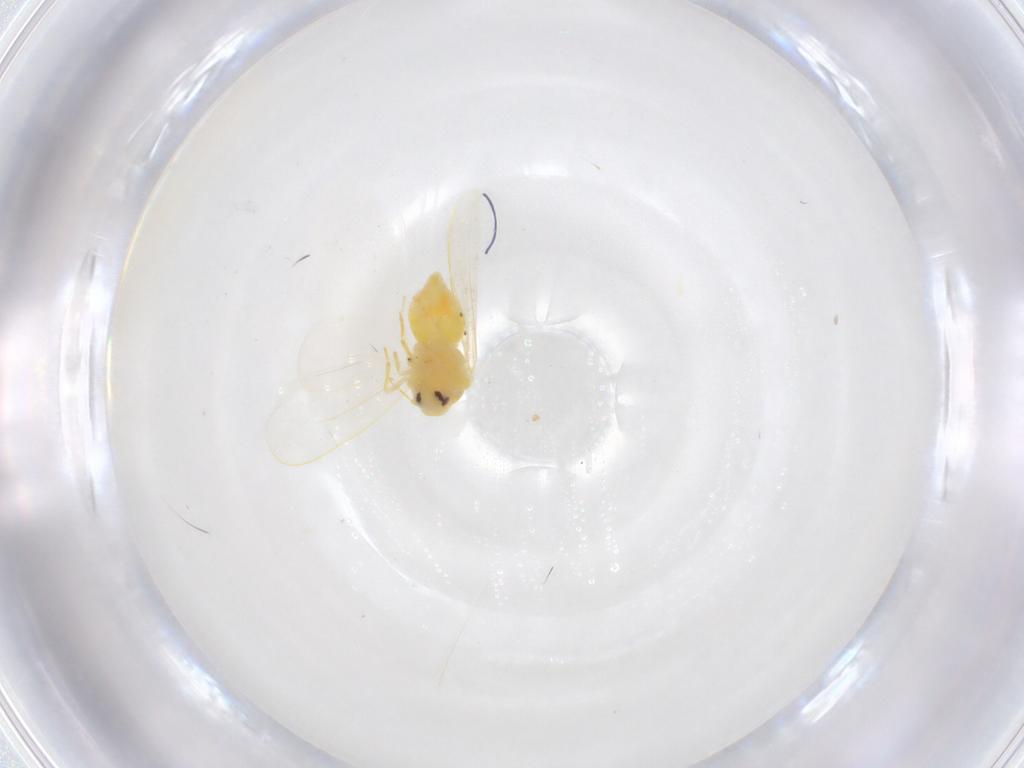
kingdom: Animalia
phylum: Arthropoda
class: Insecta
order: Hemiptera
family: Aleyrodidae
